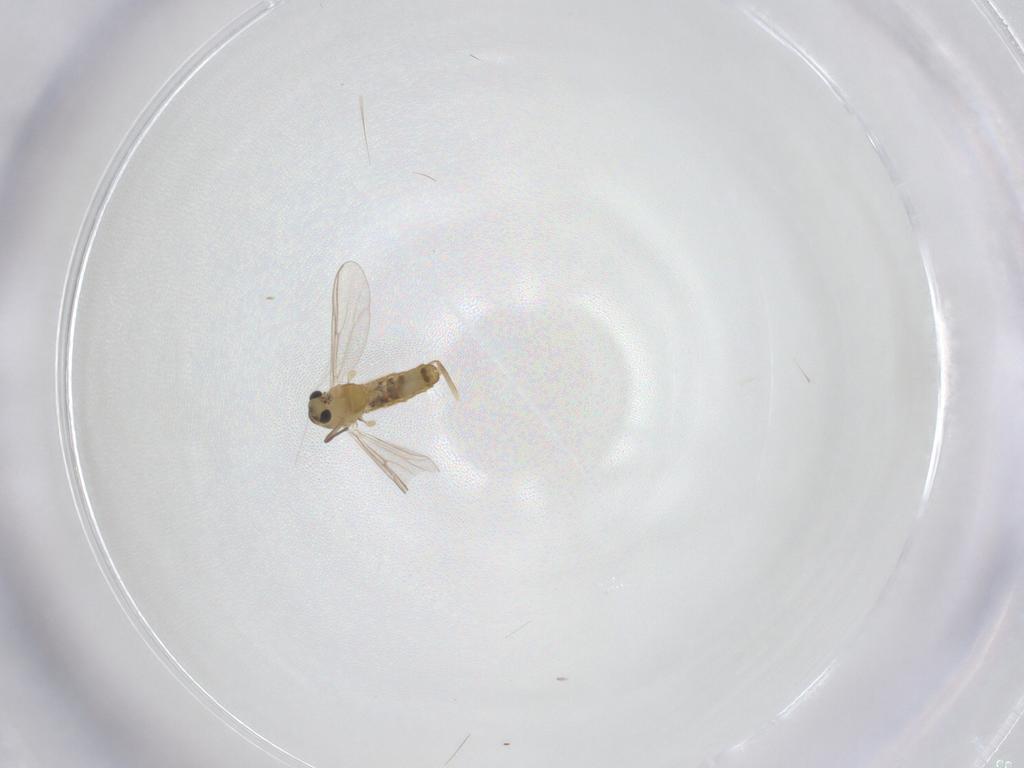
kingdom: Animalia
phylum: Arthropoda
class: Insecta
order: Diptera
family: Chironomidae
